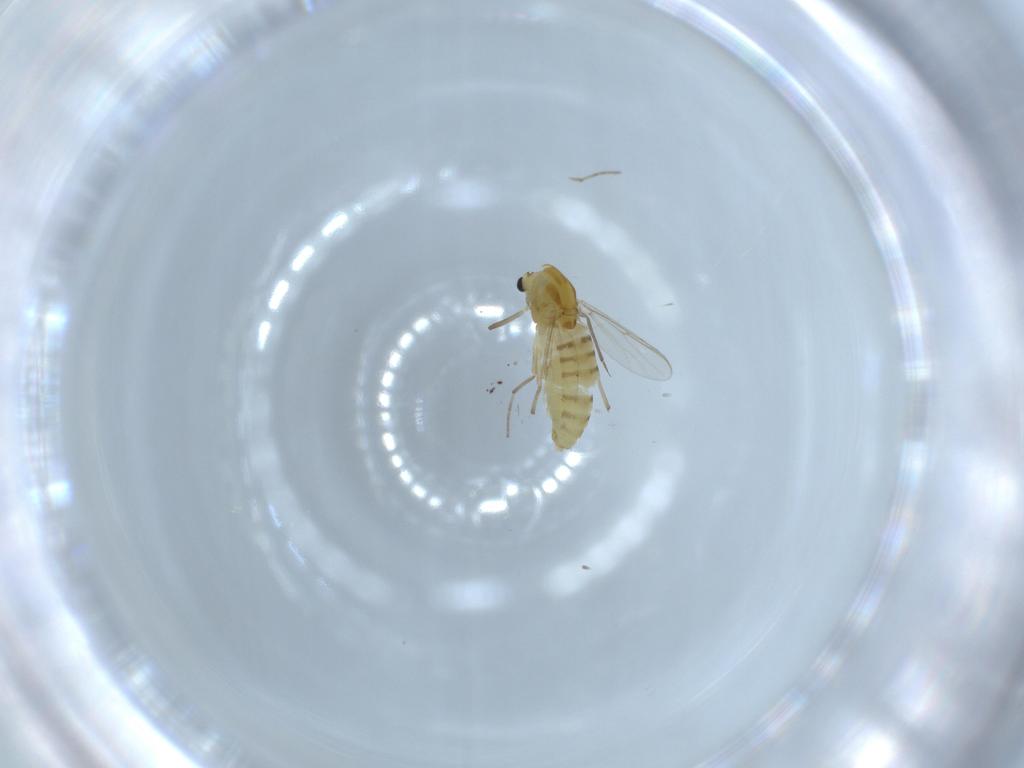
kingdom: Animalia
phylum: Arthropoda
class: Insecta
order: Diptera
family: Chironomidae
